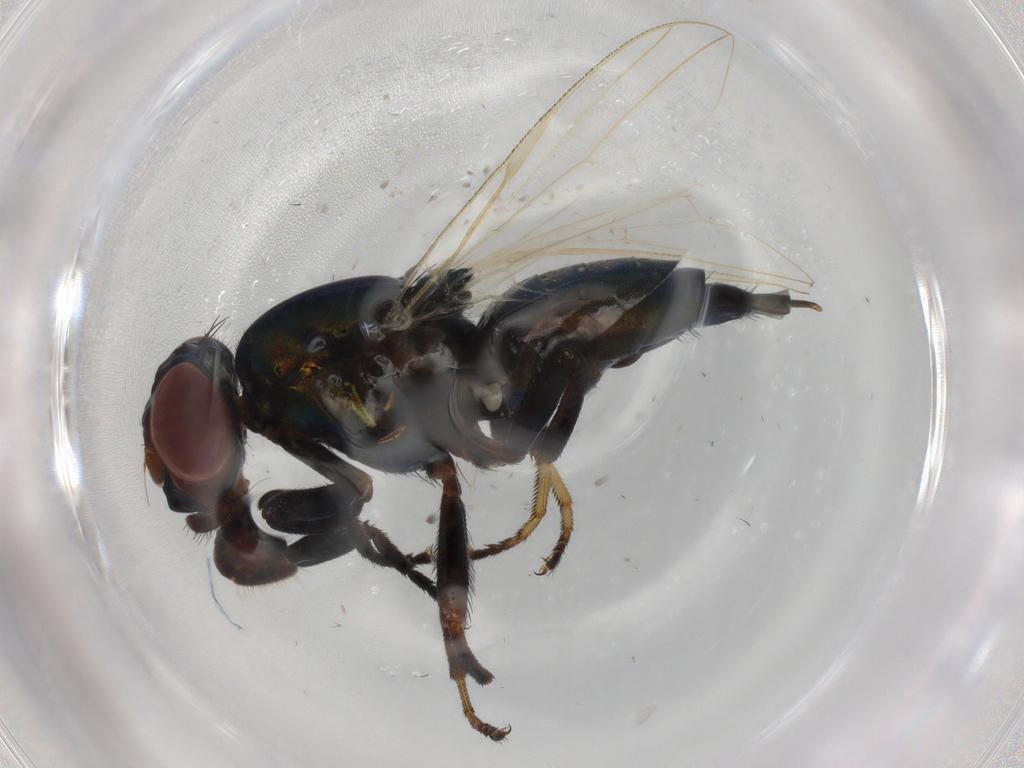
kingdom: Animalia
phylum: Arthropoda
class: Insecta
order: Diptera
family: Ulidiidae
